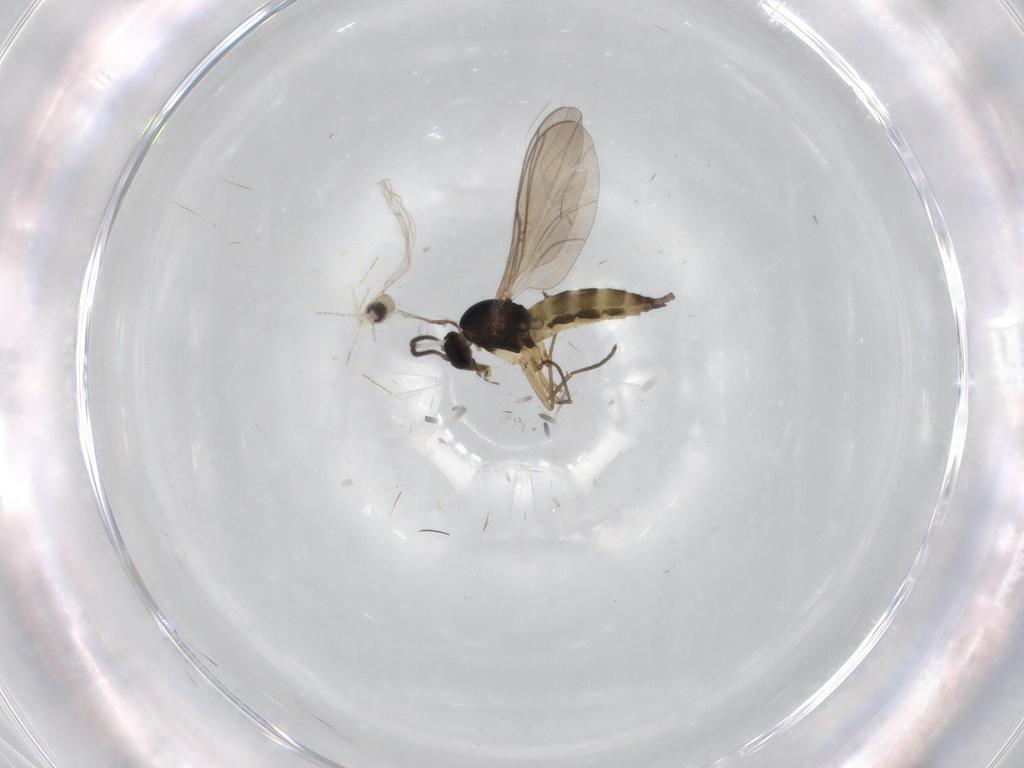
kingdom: Animalia
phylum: Arthropoda
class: Insecta
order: Diptera
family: Cecidomyiidae
